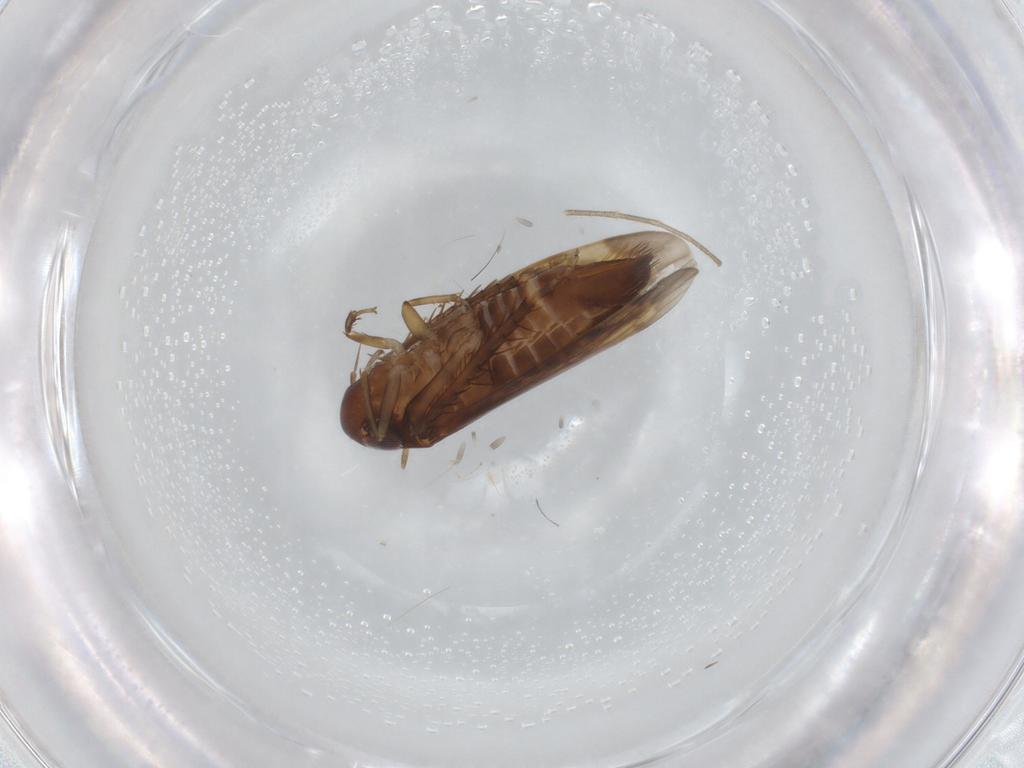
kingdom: Animalia
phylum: Arthropoda
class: Insecta
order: Hemiptera
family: Cicadellidae
